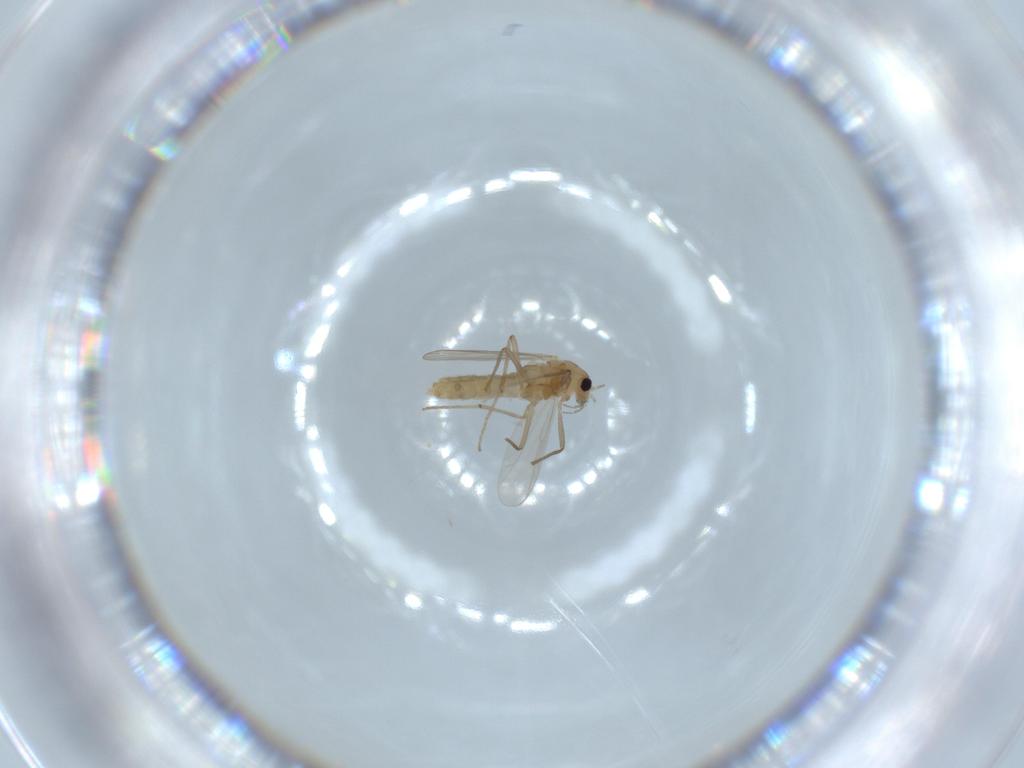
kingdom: Animalia
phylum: Arthropoda
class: Insecta
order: Diptera
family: Chironomidae
